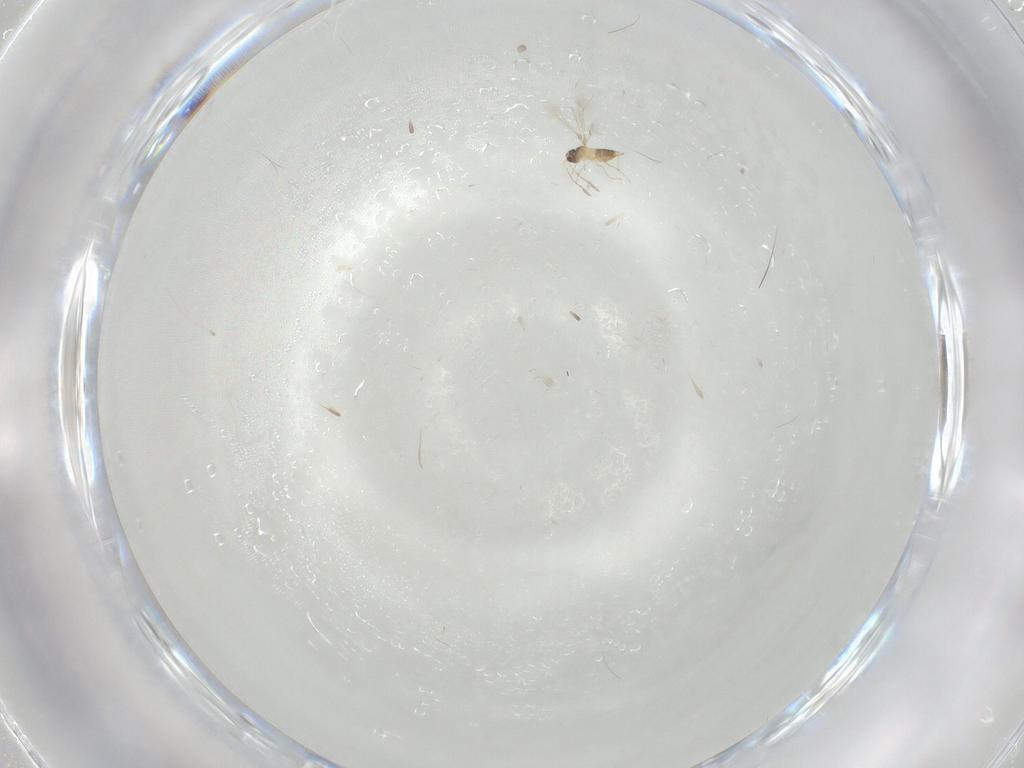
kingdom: Animalia
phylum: Arthropoda
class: Insecta
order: Hymenoptera
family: Mymaridae
